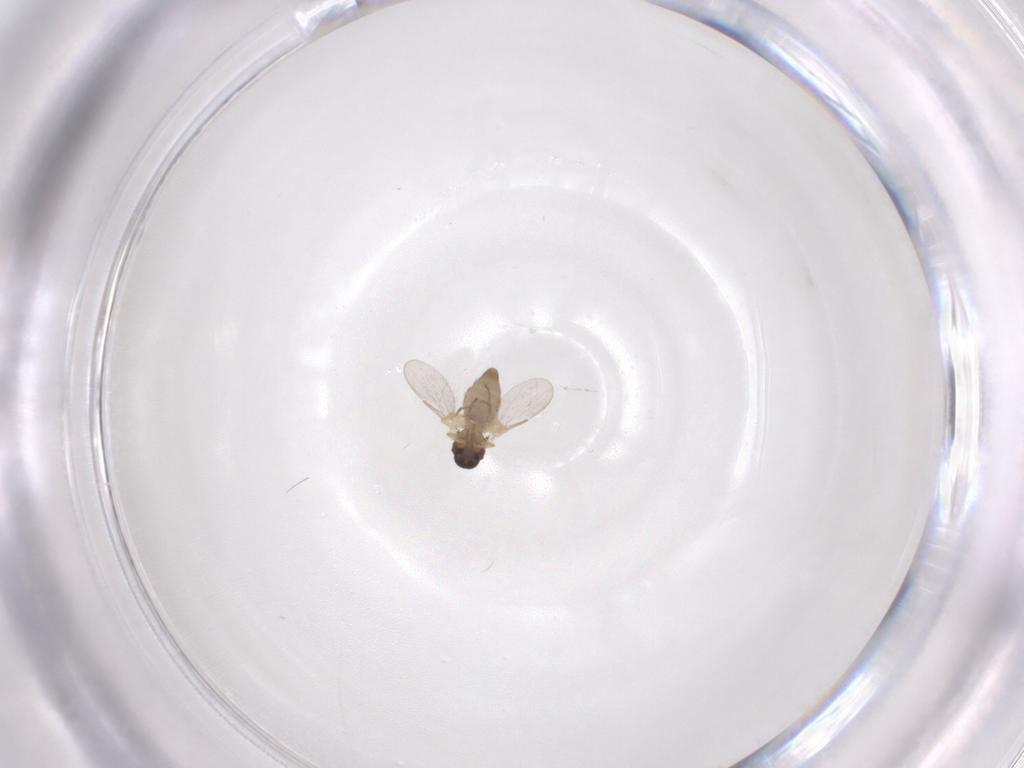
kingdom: Animalia
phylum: Arthropoda
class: Insecta
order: Diptera
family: Ceratopogonidae
